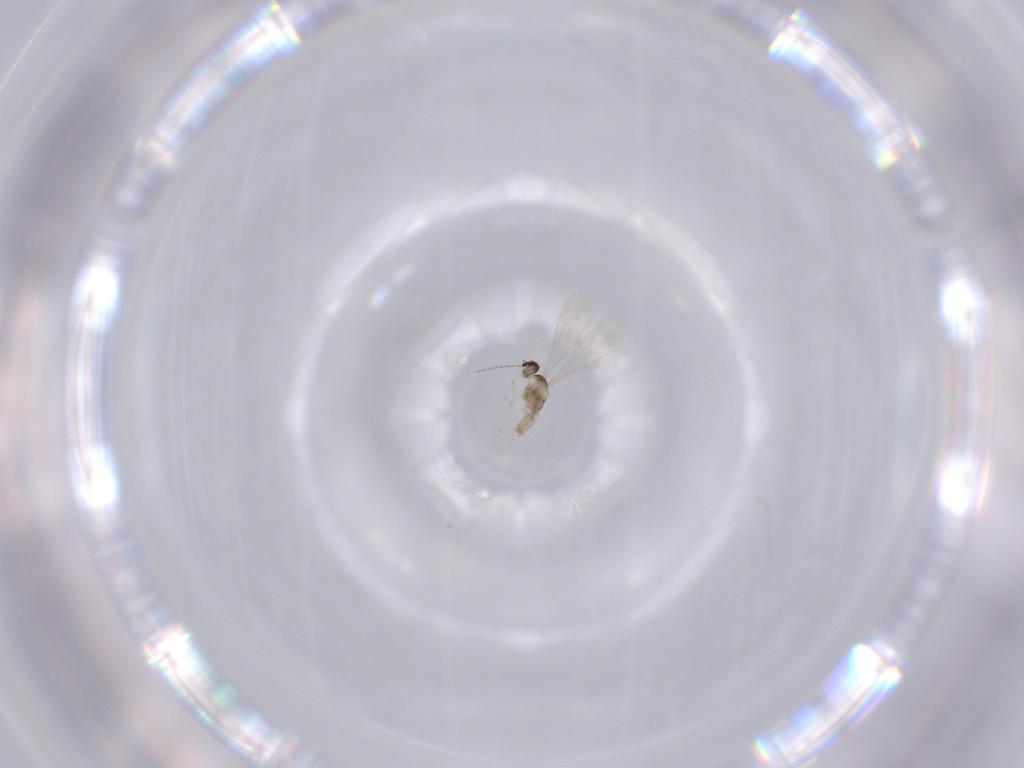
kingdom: Animalia
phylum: Arthropoda
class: Insecta
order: Diptera
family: Cecidomyiidae
